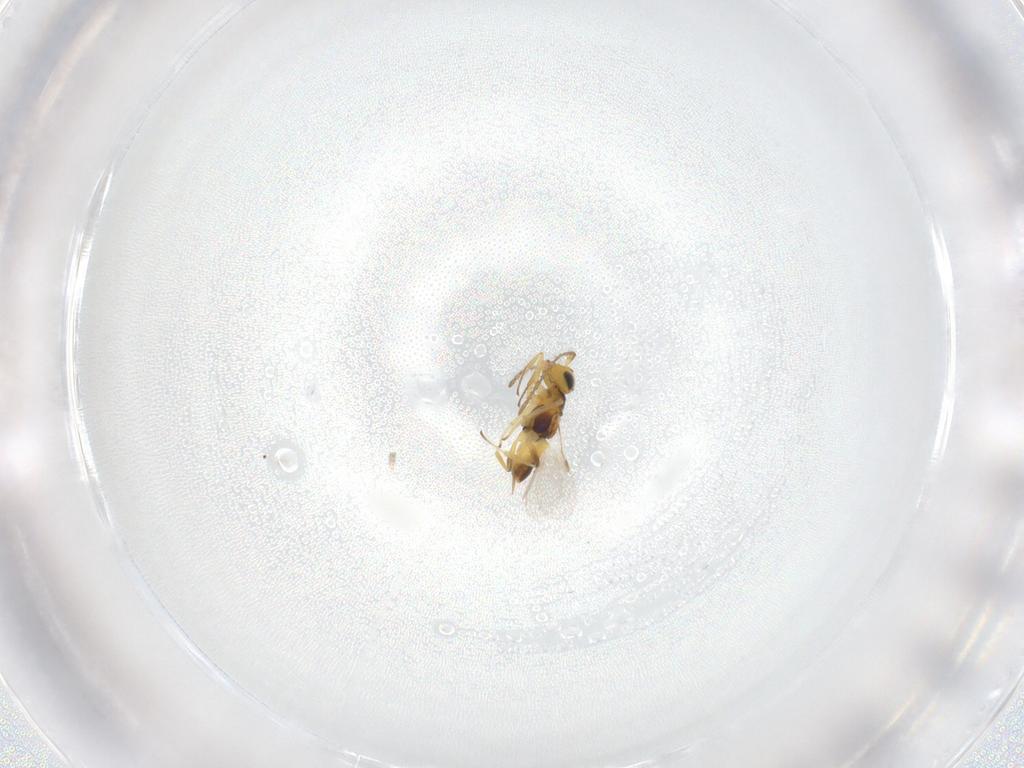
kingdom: Animalia
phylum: Arthropoda
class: Insecta
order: Hymenoptera
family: Encyrtidae
